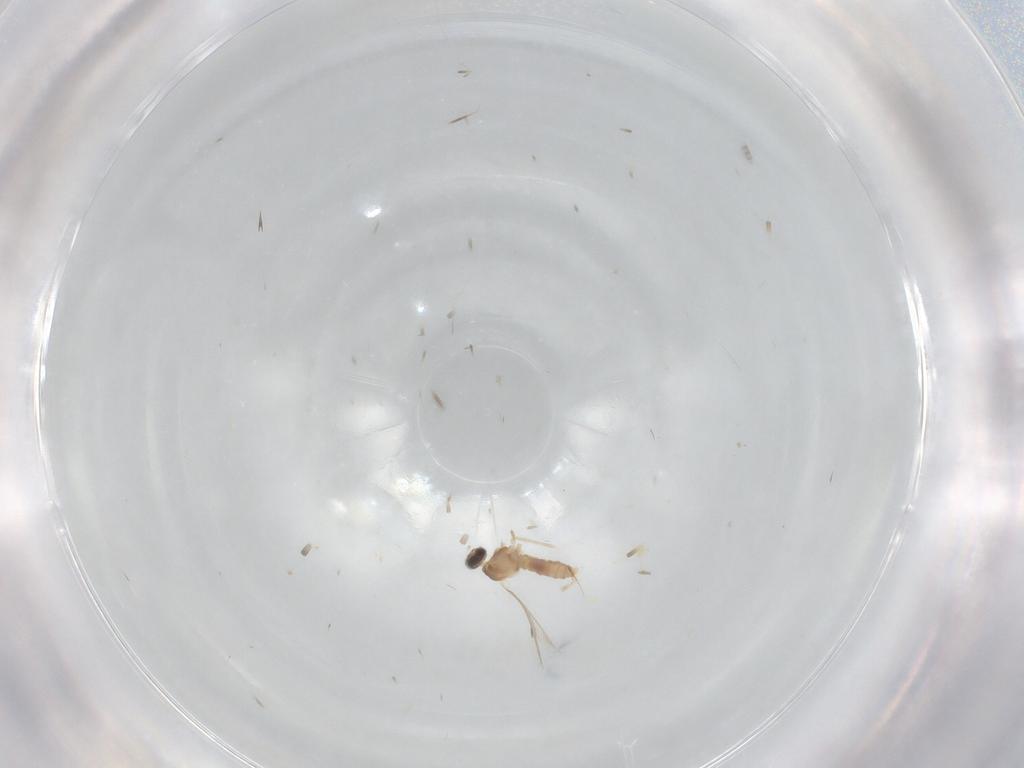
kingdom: Animalia
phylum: Arthropoda
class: Insecta
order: Diptera
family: Cecidomyiidae
